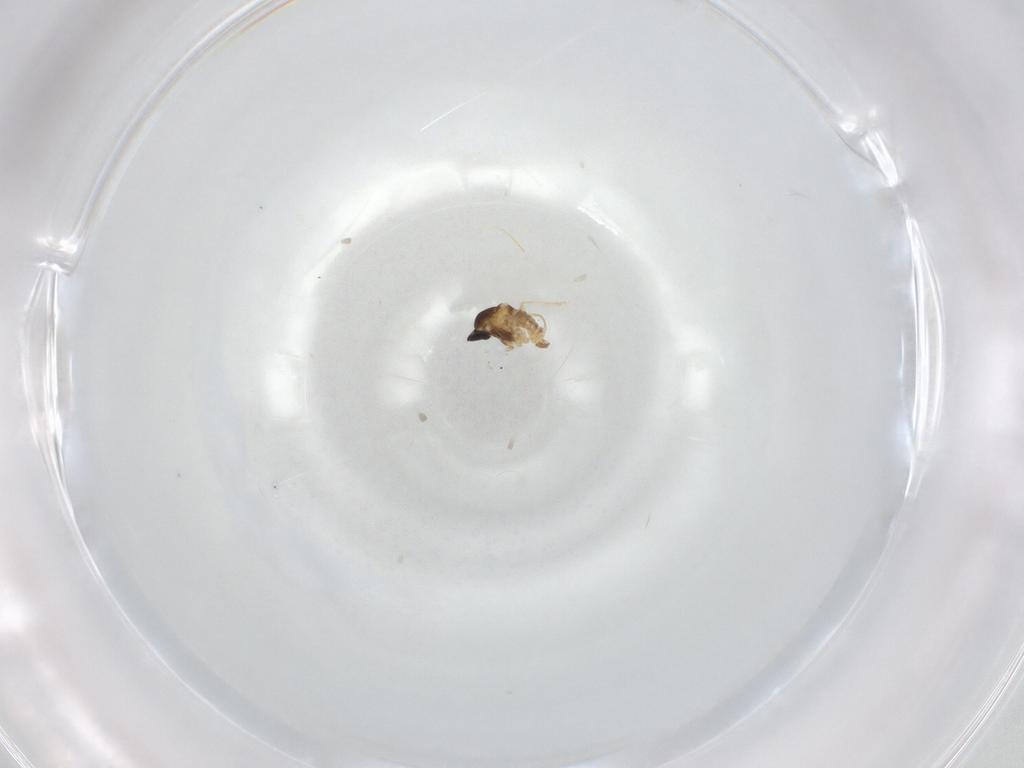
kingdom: Animalia
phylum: Arthropoda
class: Insecta
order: Diptera
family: Cecidomyiidae
